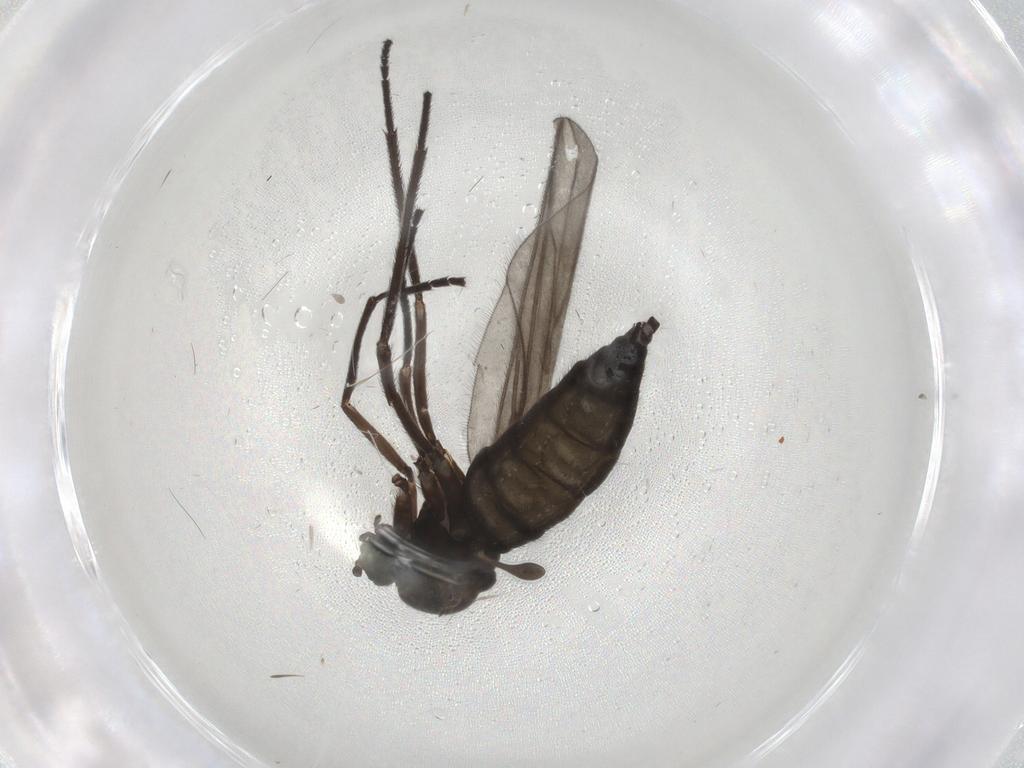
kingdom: Animalia
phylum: Arthropoda
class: Insecta
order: Diptera
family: Sciaridae
